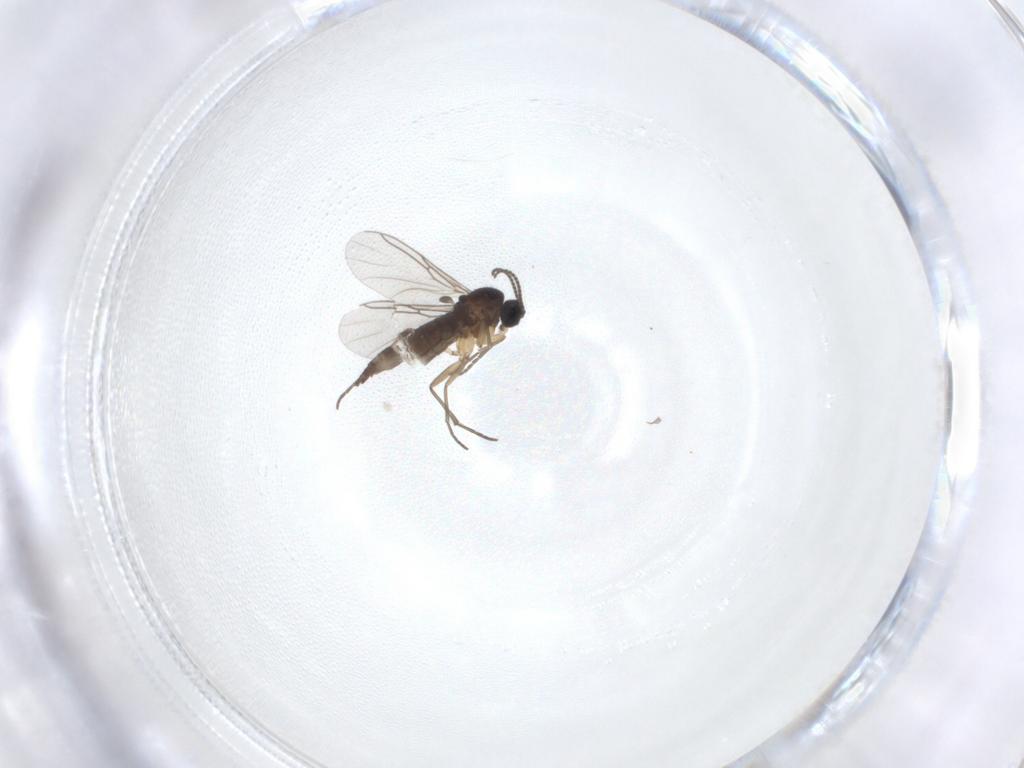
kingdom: Animalia
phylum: Arthropoda
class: Insecta
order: Diptera
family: Sciaridae
